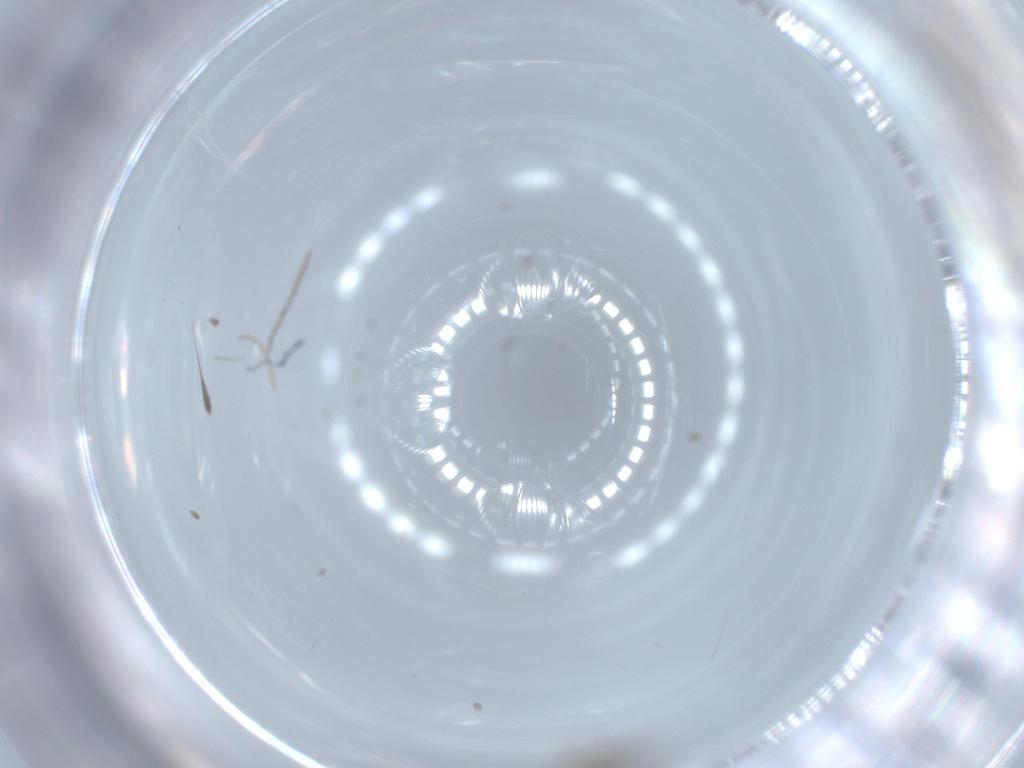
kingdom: Animalia
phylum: Arthropoda
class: Insecta
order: Diptera
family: Cecidomyiidae
